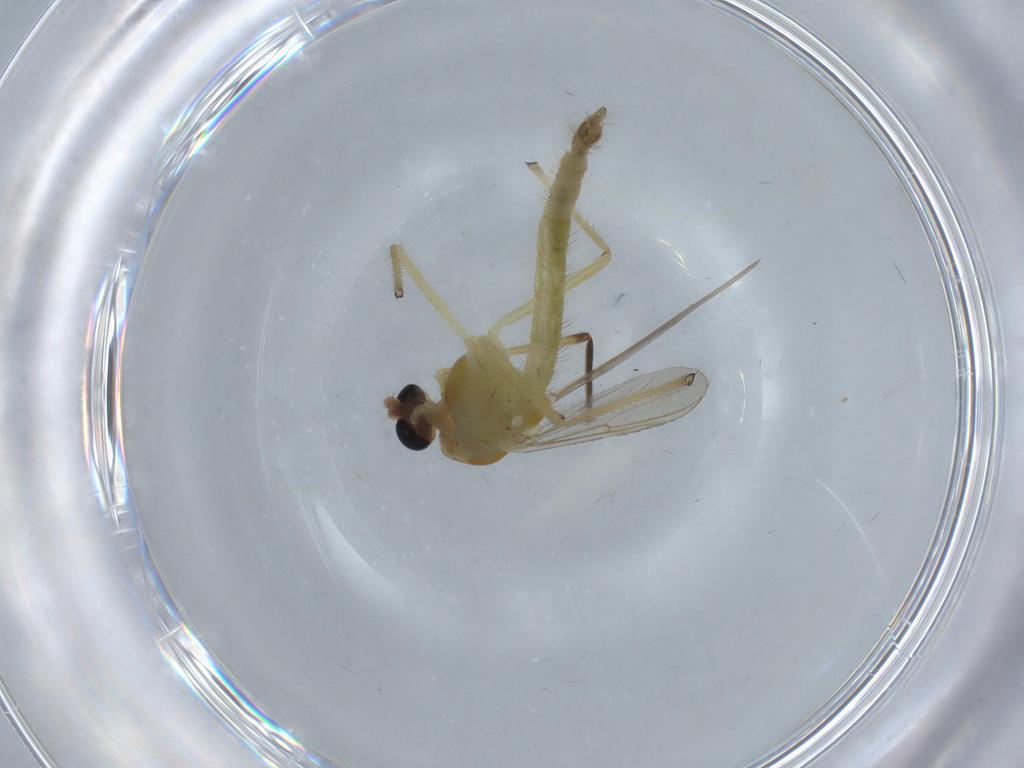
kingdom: Animalia
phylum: Arthropoda
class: Insecta
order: Diptera
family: Chironomidae
